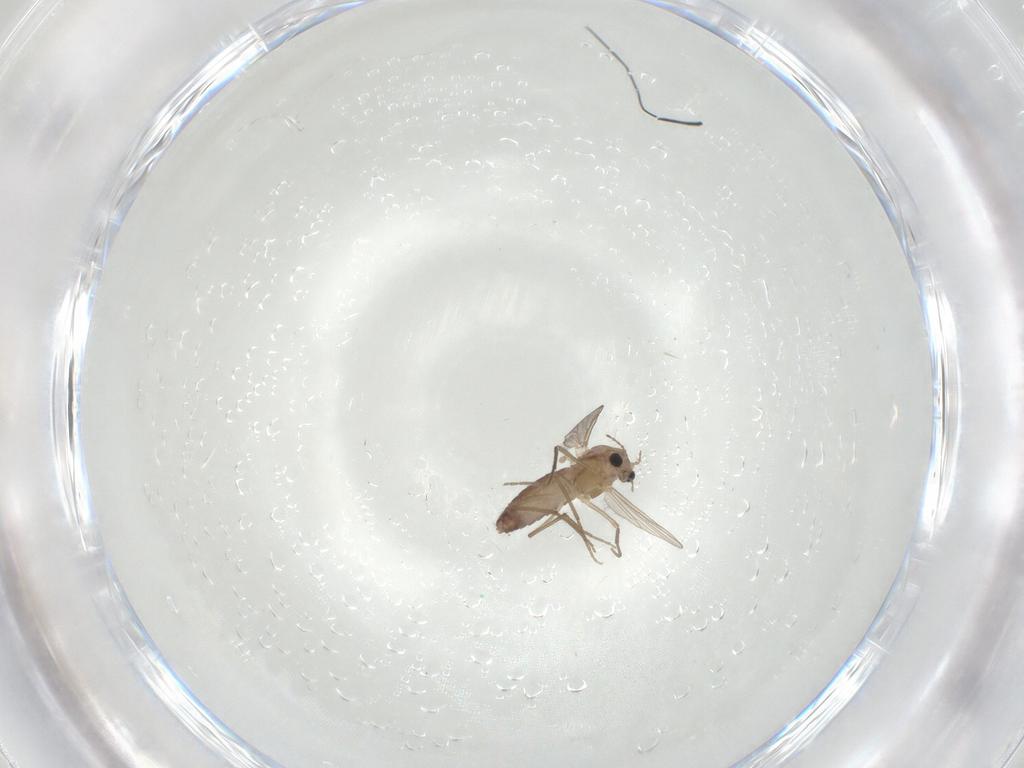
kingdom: Animalia
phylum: Arthropoda
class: Insecta
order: Diptera
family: Chironomidae
